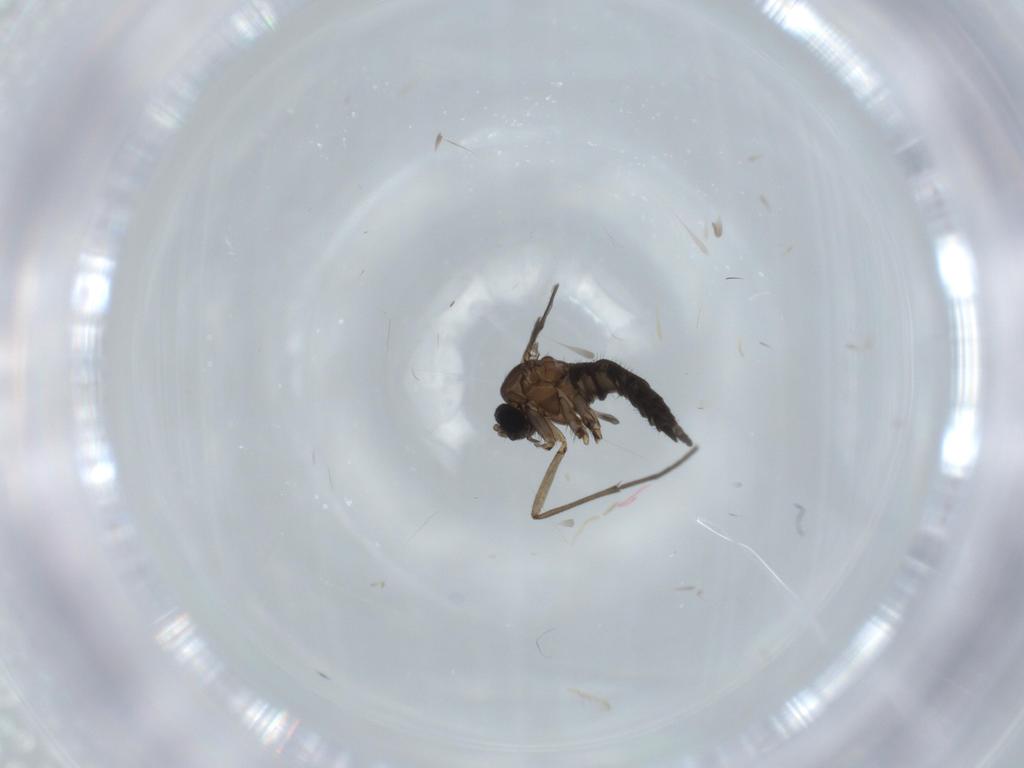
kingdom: Animalia
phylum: Arthropoda
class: Insecta
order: Diptera
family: Sciaridae
